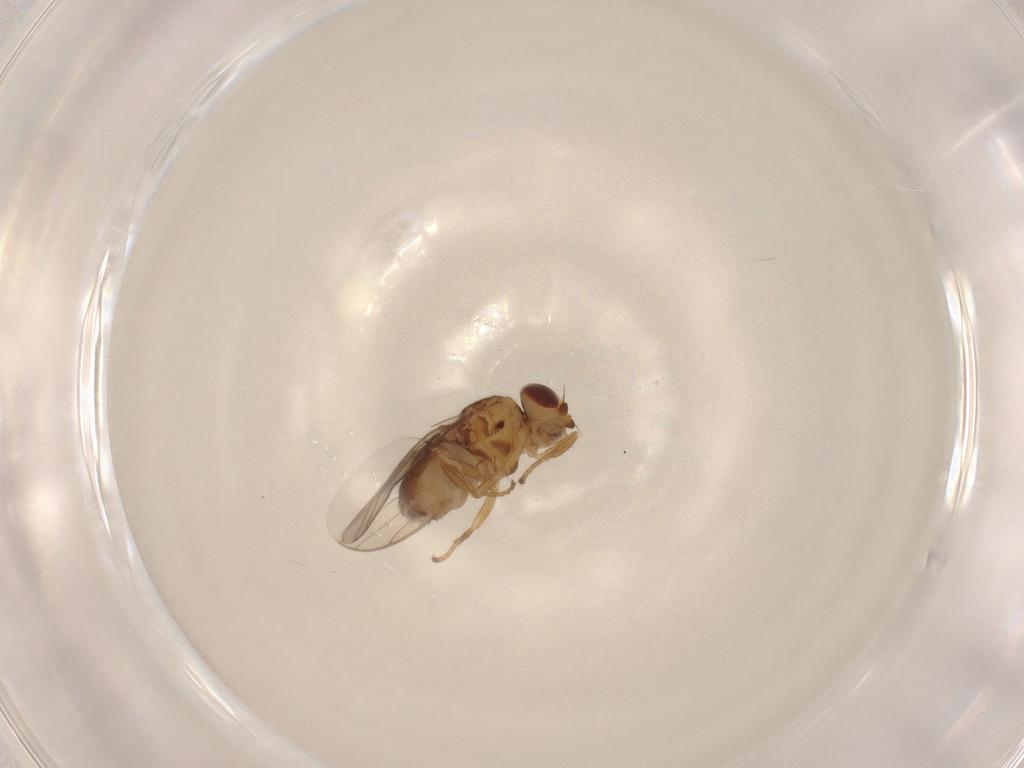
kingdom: Animalia
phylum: Arthropoda
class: Insecta
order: Diptera
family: Chloropidae
